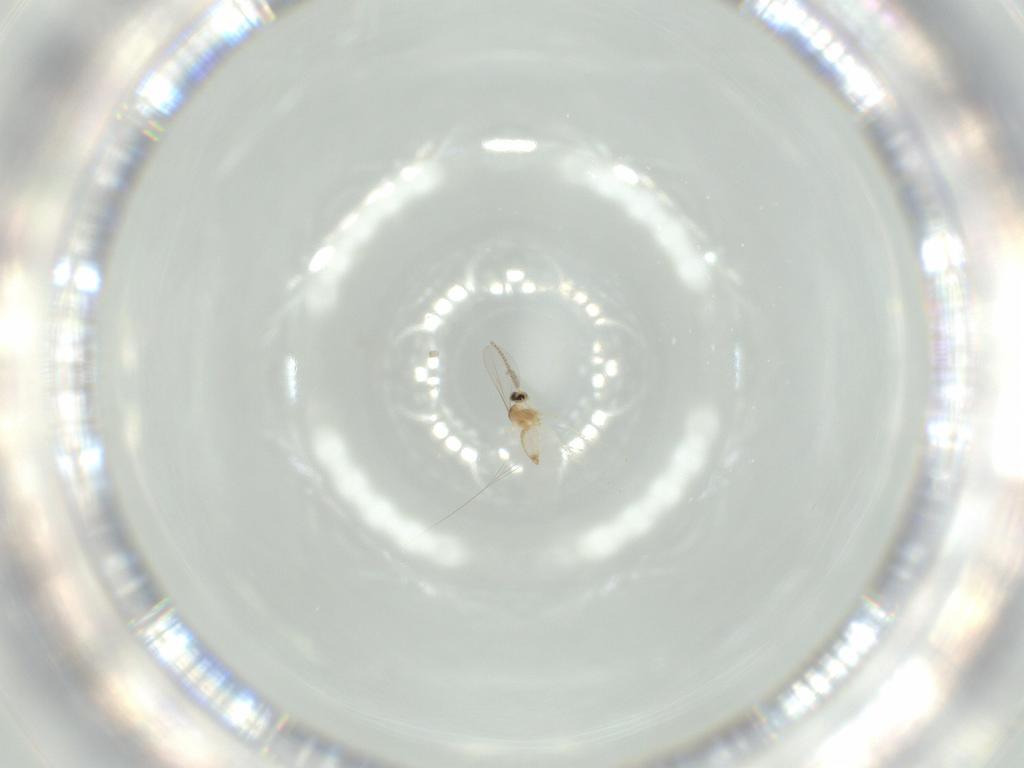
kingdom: Animalia
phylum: Arthropoda
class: Insecta
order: Diptera
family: Cecidomyiidae
